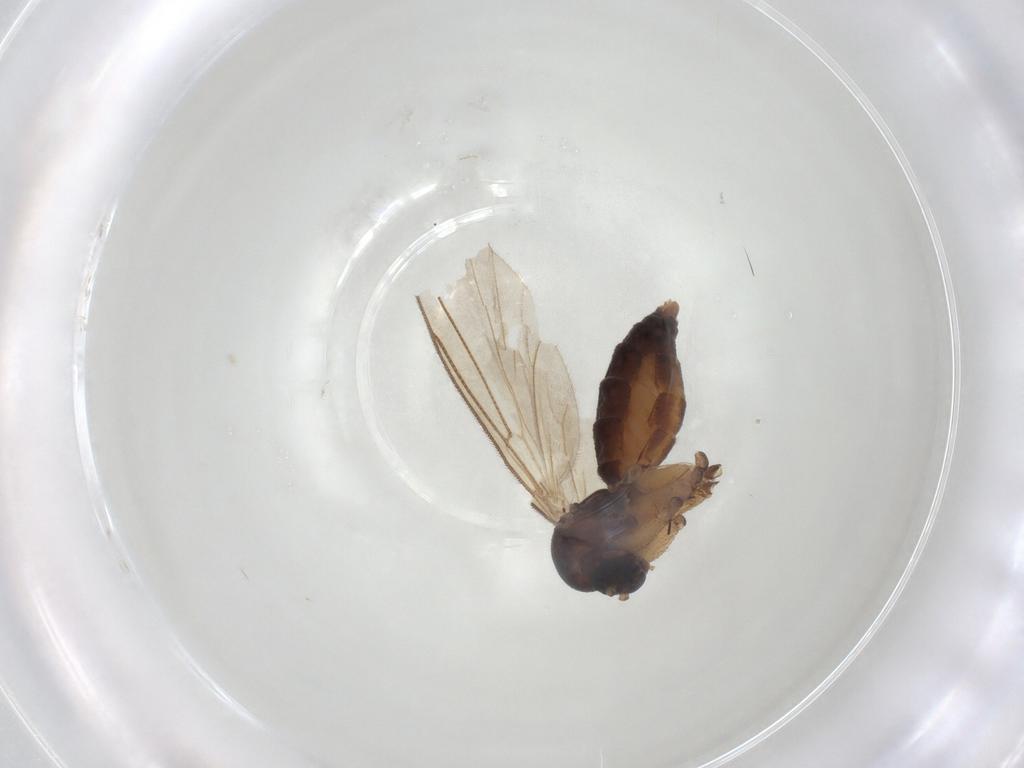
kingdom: Animalia
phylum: Arthropoda
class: Insecta
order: Diptera
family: Mycetophilidae
